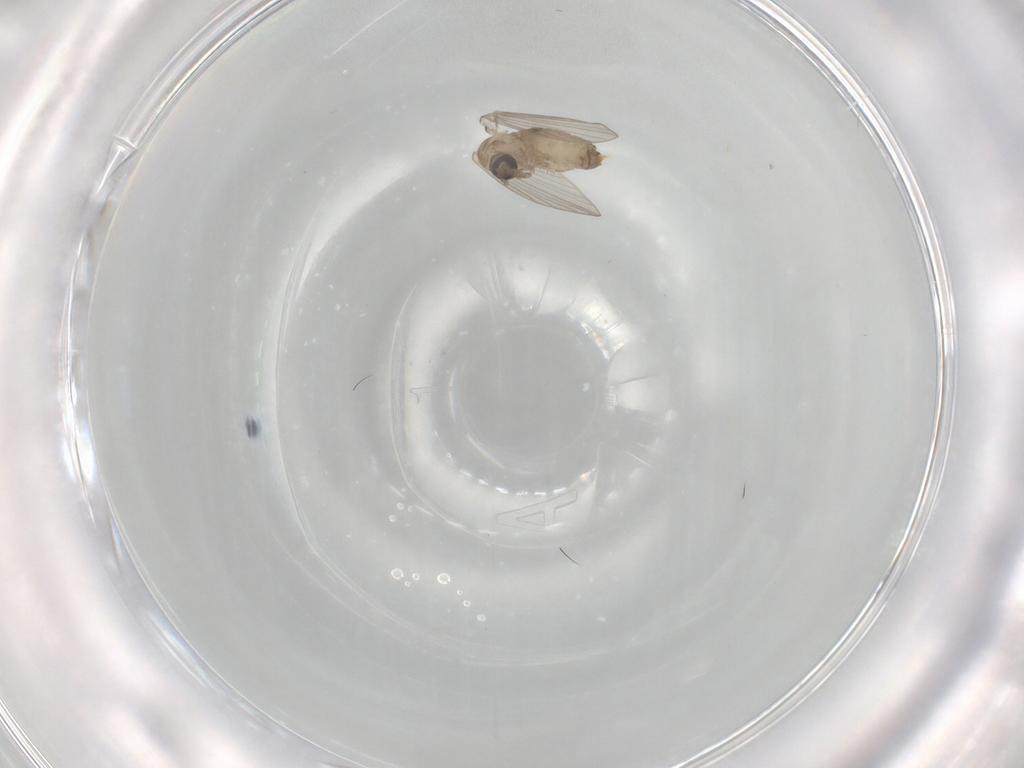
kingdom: Animalia
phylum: Arthropoda
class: Insecta
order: Diptera
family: Psychodidae
